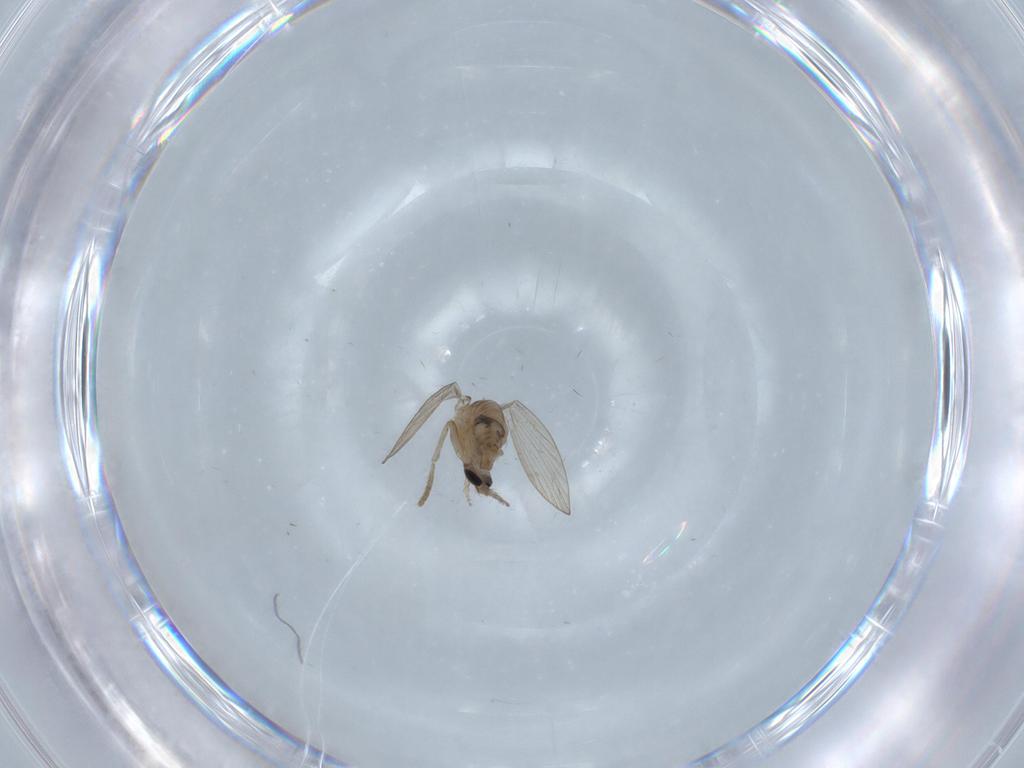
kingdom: Animalia
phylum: Arthropoda
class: Insecta
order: Diptera
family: Psychodidae
